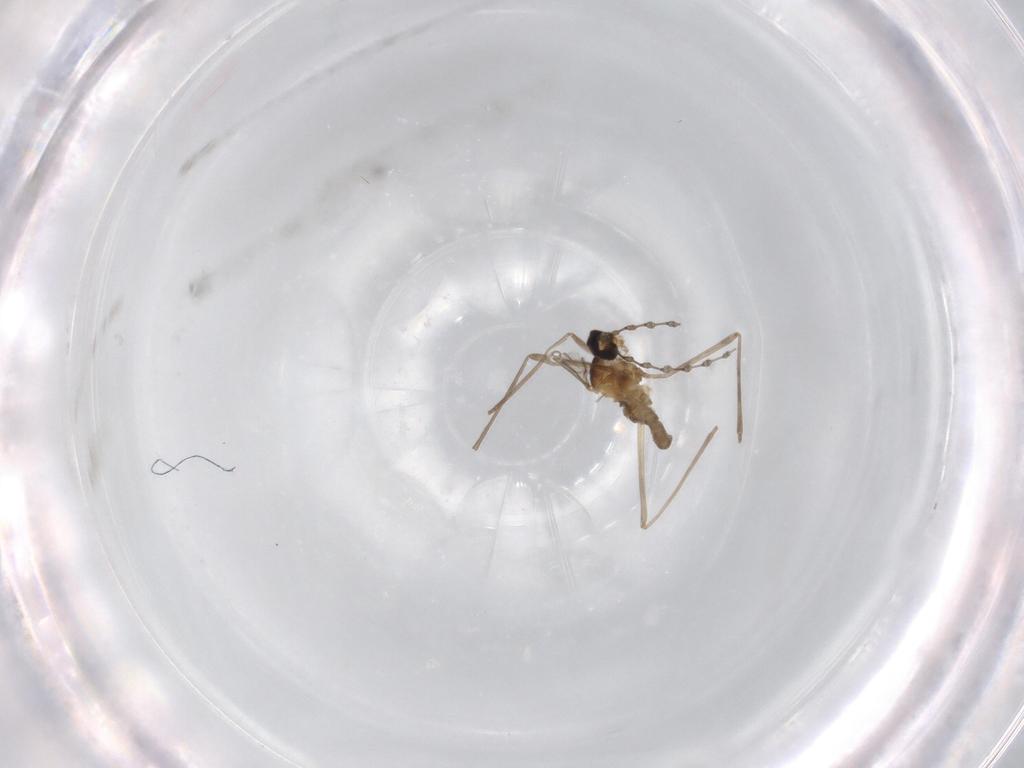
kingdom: Animalia
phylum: Arthropoda
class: Insecta
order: Diptera
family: Cecidomyiidae
